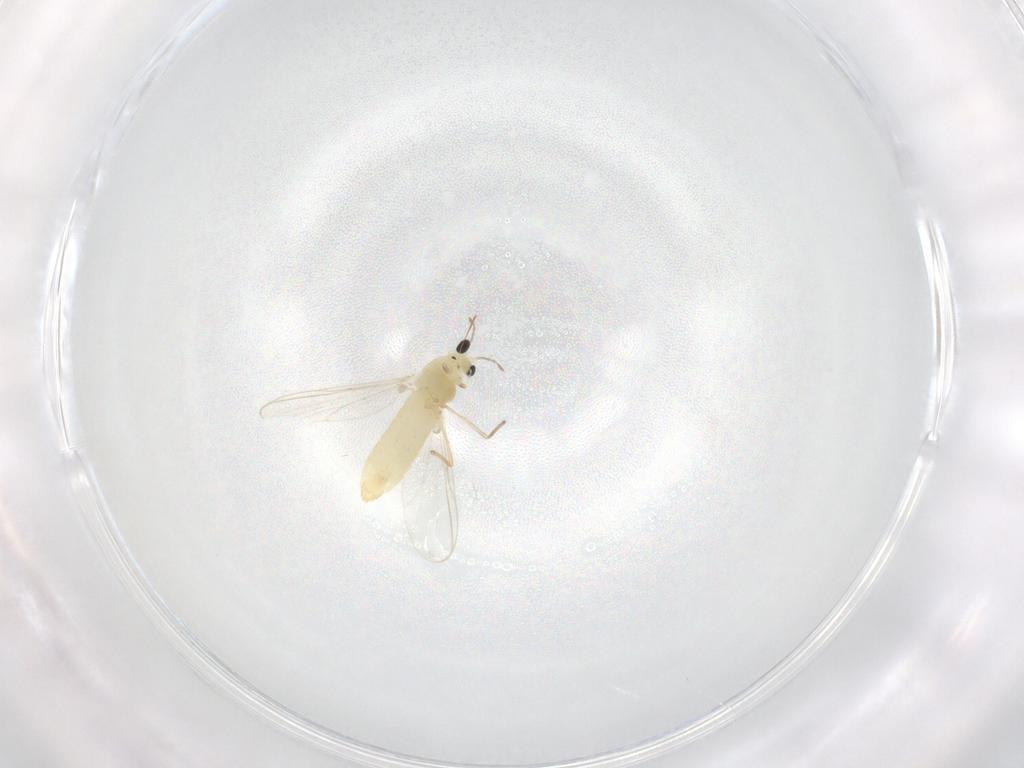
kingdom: Animalia
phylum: Arthropoda
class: Insecta
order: Diptera
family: Chironomidae
